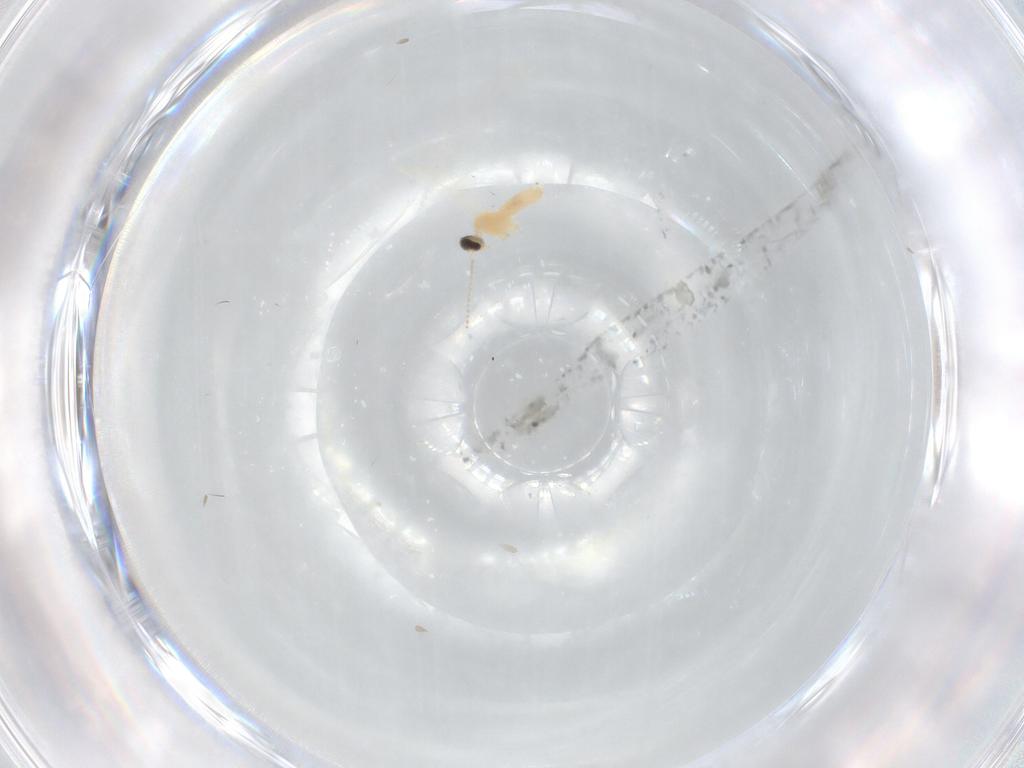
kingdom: Animalia
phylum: Arthropoda
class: Insecta
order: Diptera
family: Cecidomyiidae
